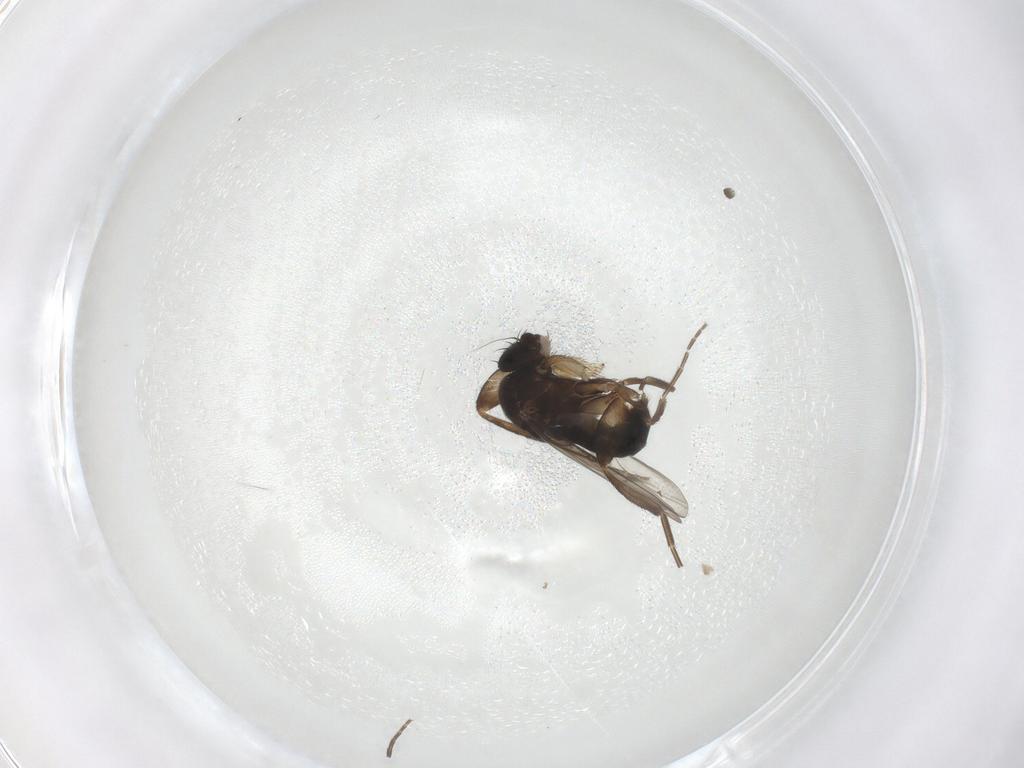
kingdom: Animalia
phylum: Arthropoda
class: Insecta
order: Diptera
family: Phoridae
